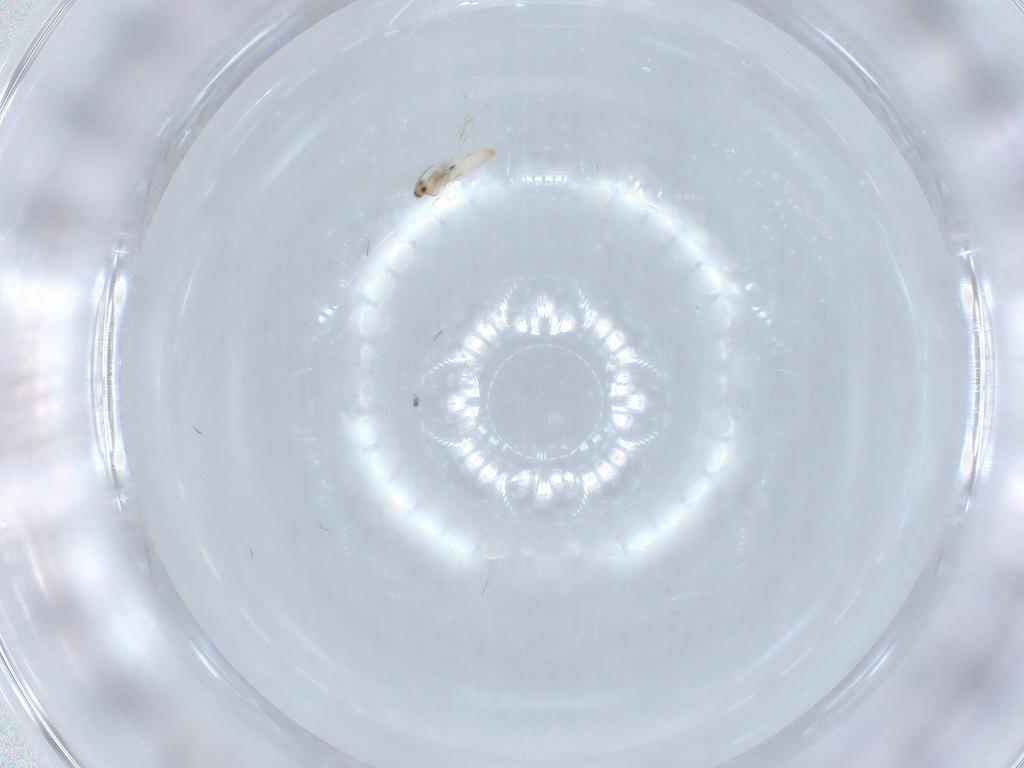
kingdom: Animalia
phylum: Arthropoda
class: Insecta
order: Diptera
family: Cecidomyiidae
